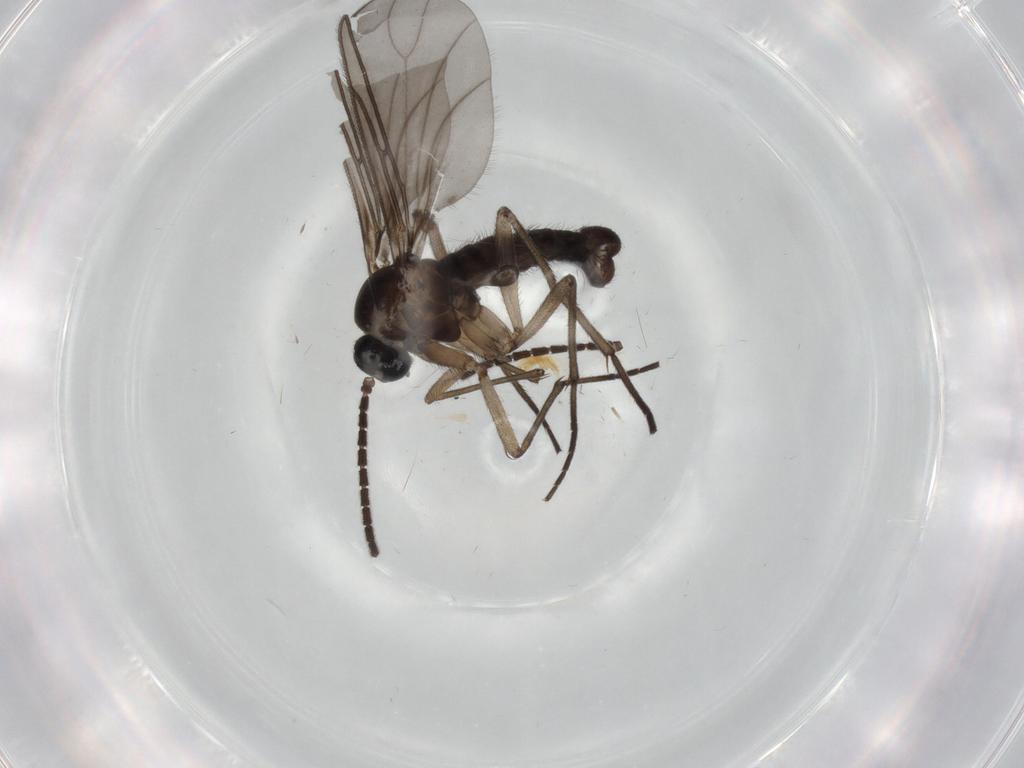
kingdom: Animalia
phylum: Arthropoda
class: Insecta
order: Diptera
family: Sciaridae
